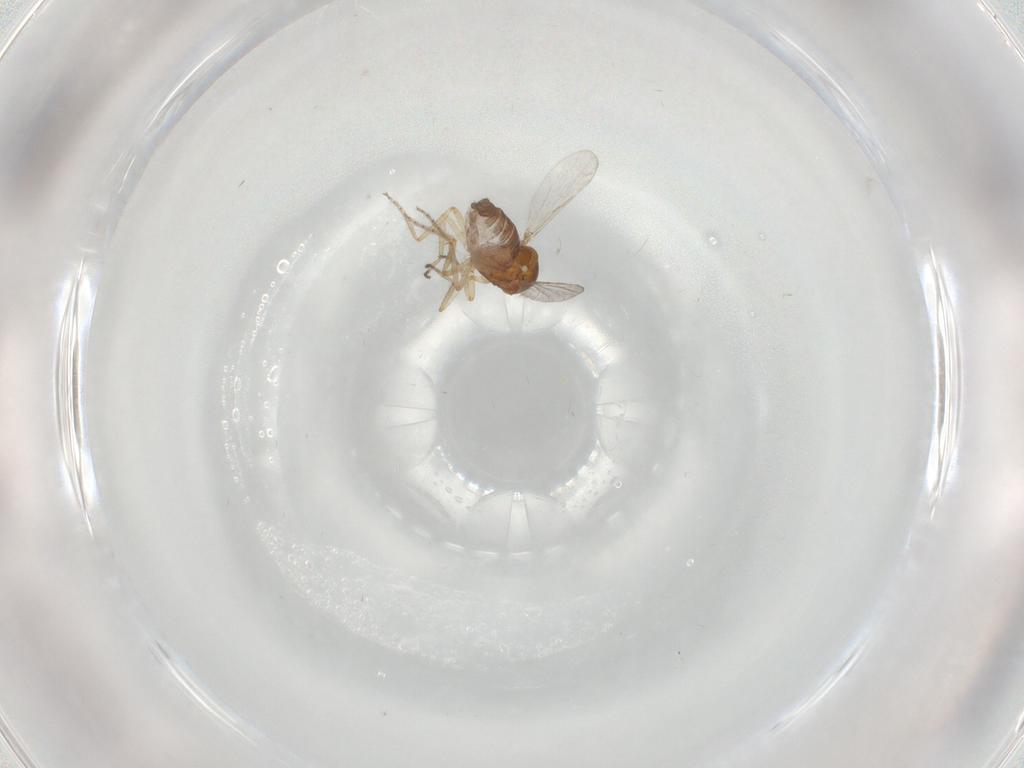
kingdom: Animalia
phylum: Arthropoda
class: Insecta
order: Diptera
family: Ceratopogonidae
